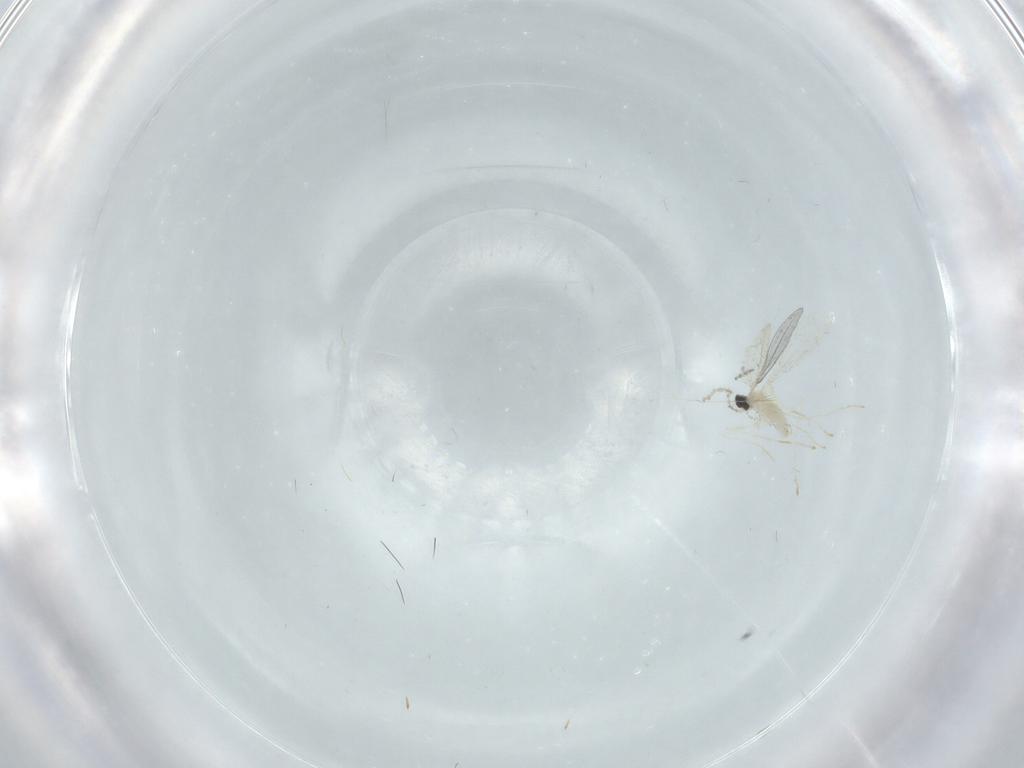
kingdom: Animalia
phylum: Arthropoda
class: Insecta
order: Diptera
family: Cecidomyiidae
